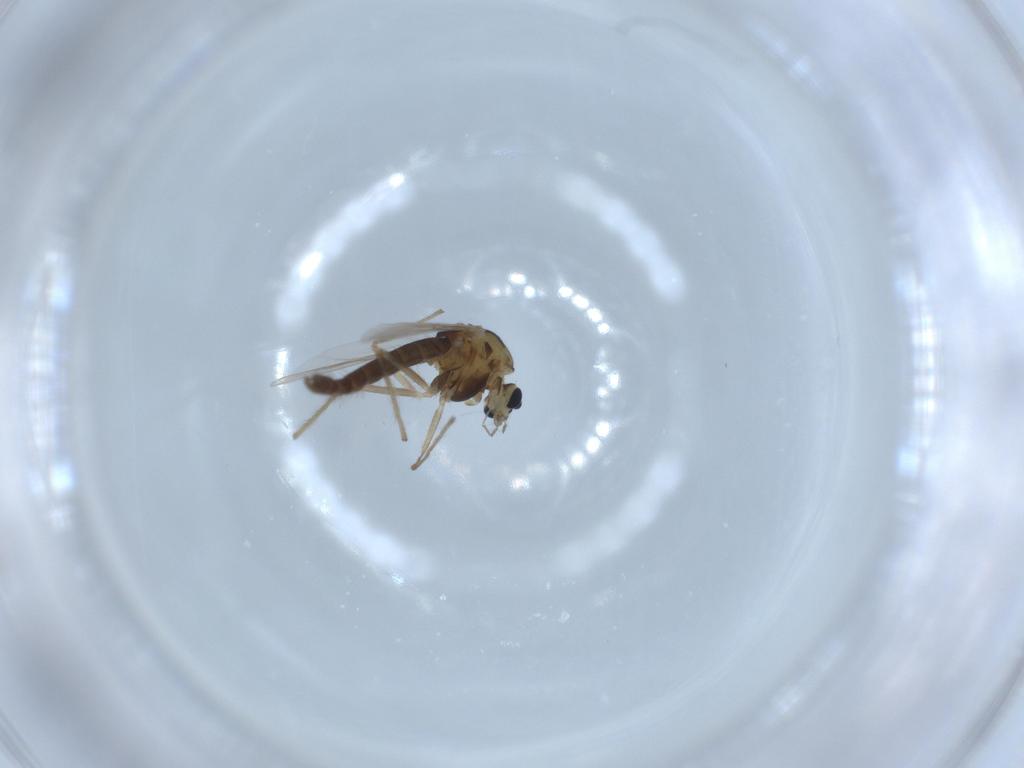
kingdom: Animalia
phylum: Arthropoda
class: Insecta
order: Diptera
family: Chironomidae
